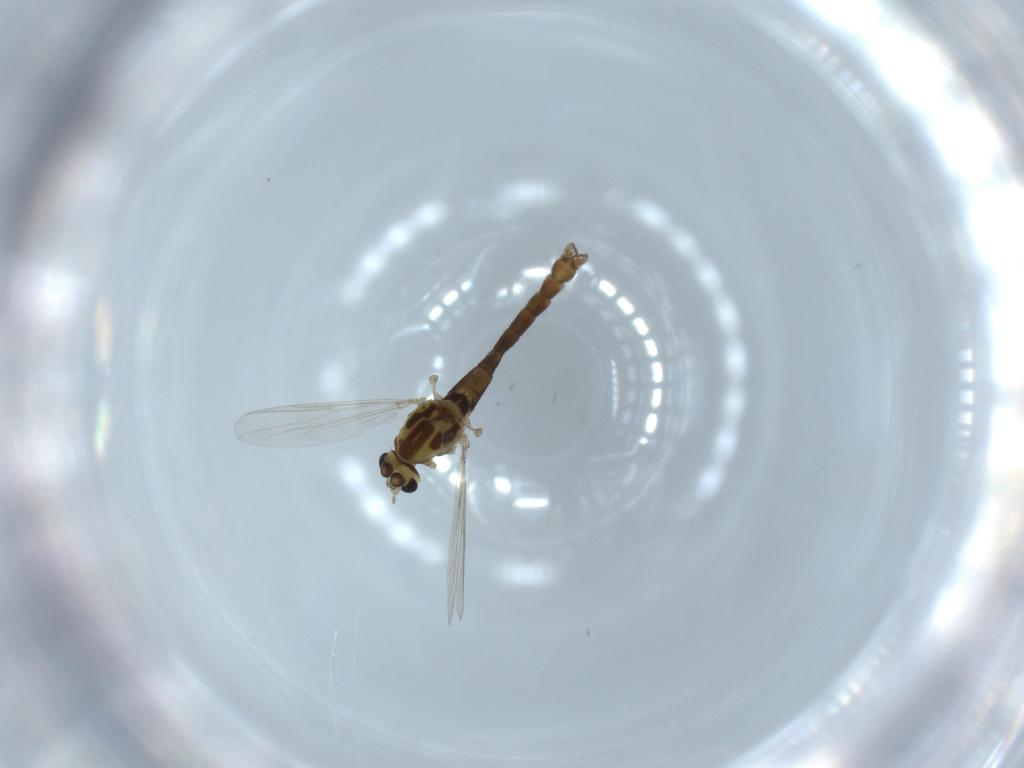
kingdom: Animalia
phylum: Arthropoda
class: Insecta
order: Diptera
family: Chironomidae
